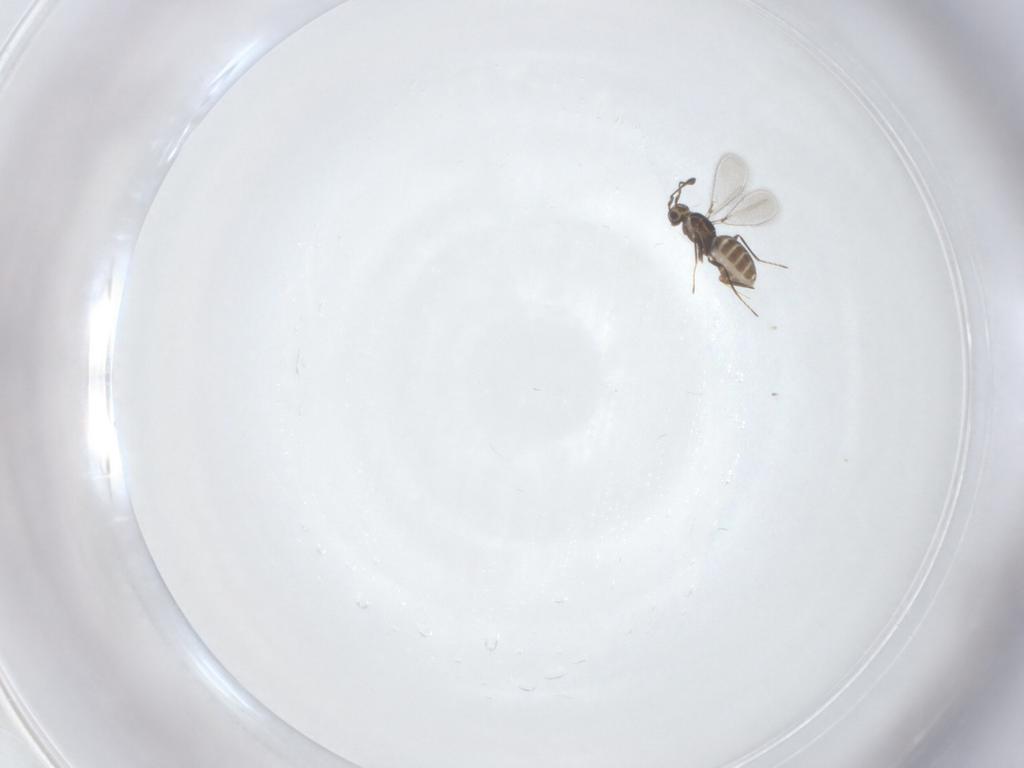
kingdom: Animalia
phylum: Arthropoda
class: Insecta
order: Hymenoptera
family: Mymaridae
